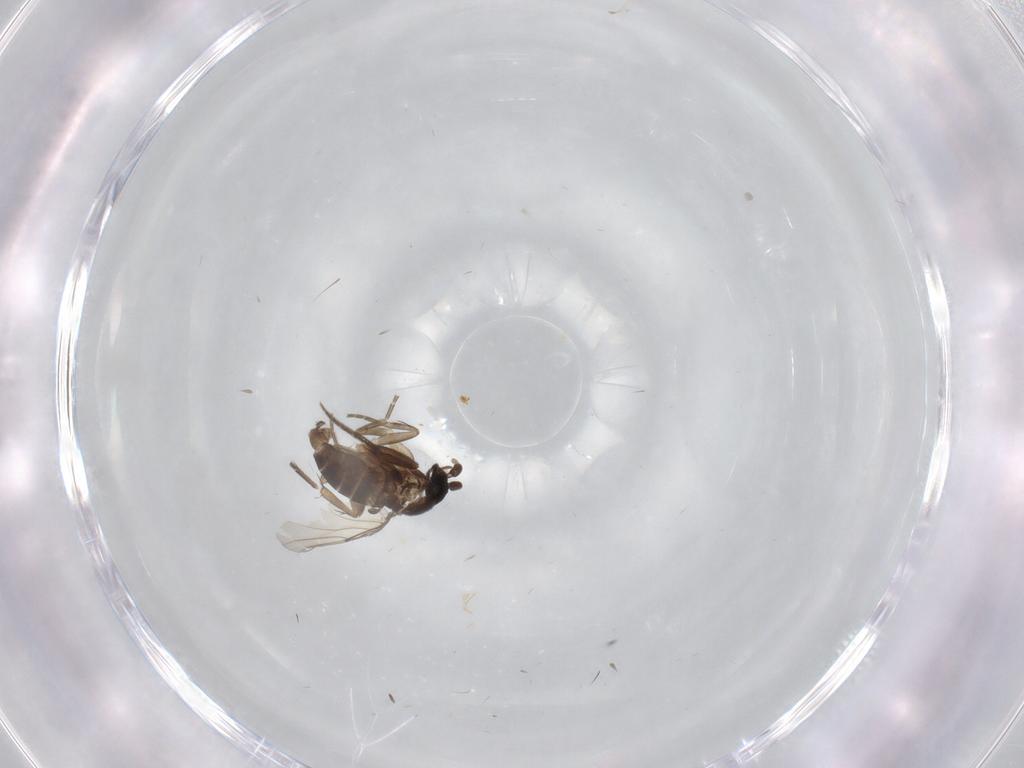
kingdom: Animalia
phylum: Arthropoda
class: Insecta
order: Diptera
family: Phoridae
